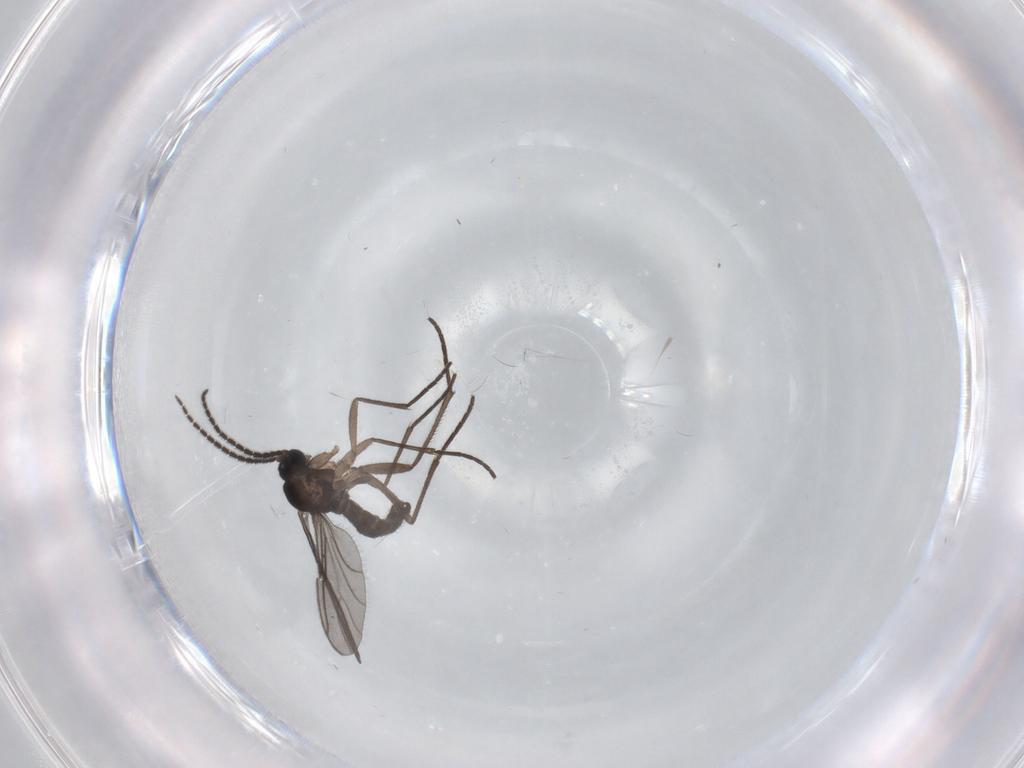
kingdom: Animalia
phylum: Arthropoda
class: Insecta
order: Diptera
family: Sciaridae
